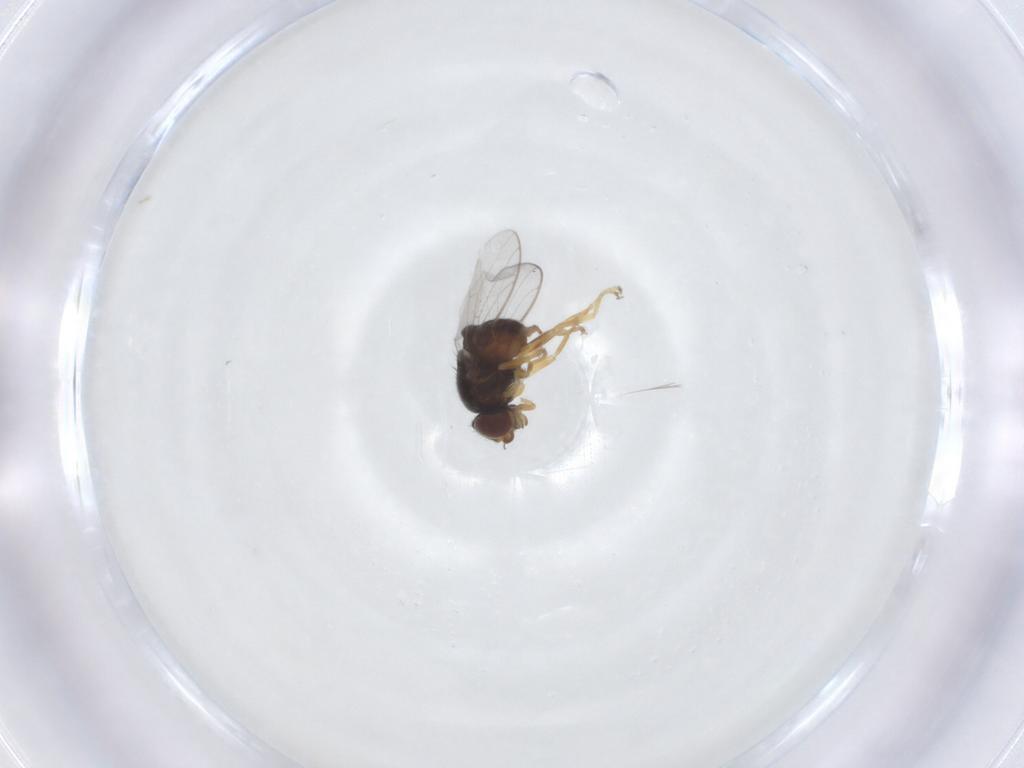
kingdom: Animalia
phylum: Arthropoda
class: Insecta
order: Diptera
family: Chloropidae
